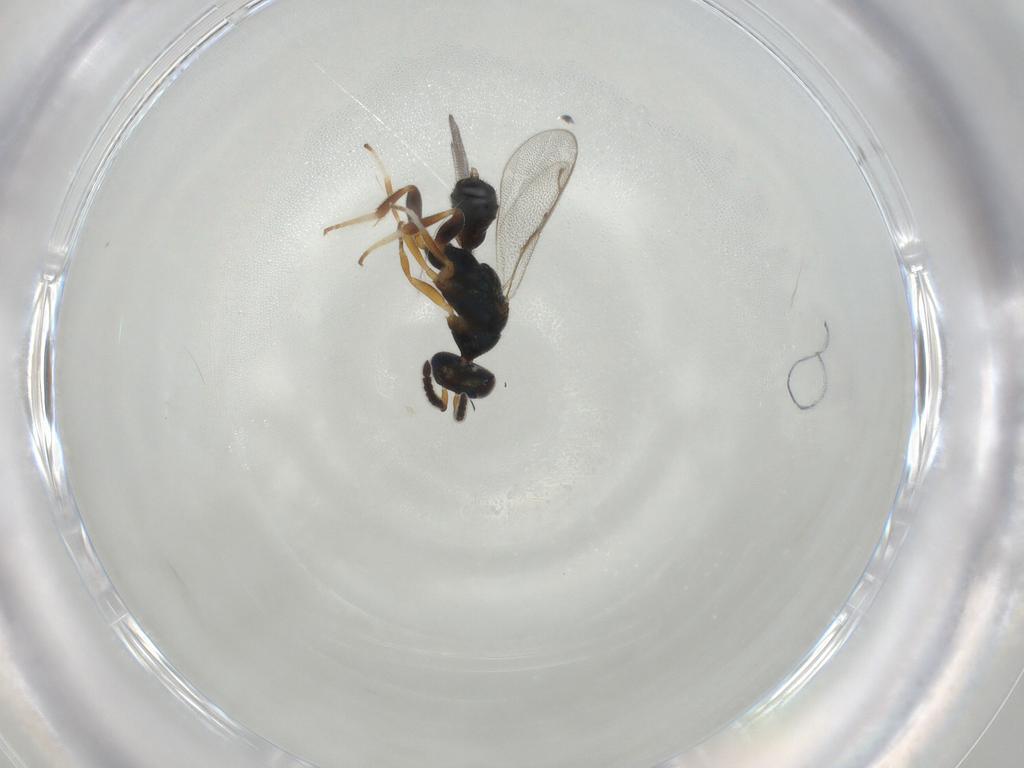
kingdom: Animalia
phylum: Arthropoda
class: Insecta
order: Hymenoptera
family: Cleonyminae
